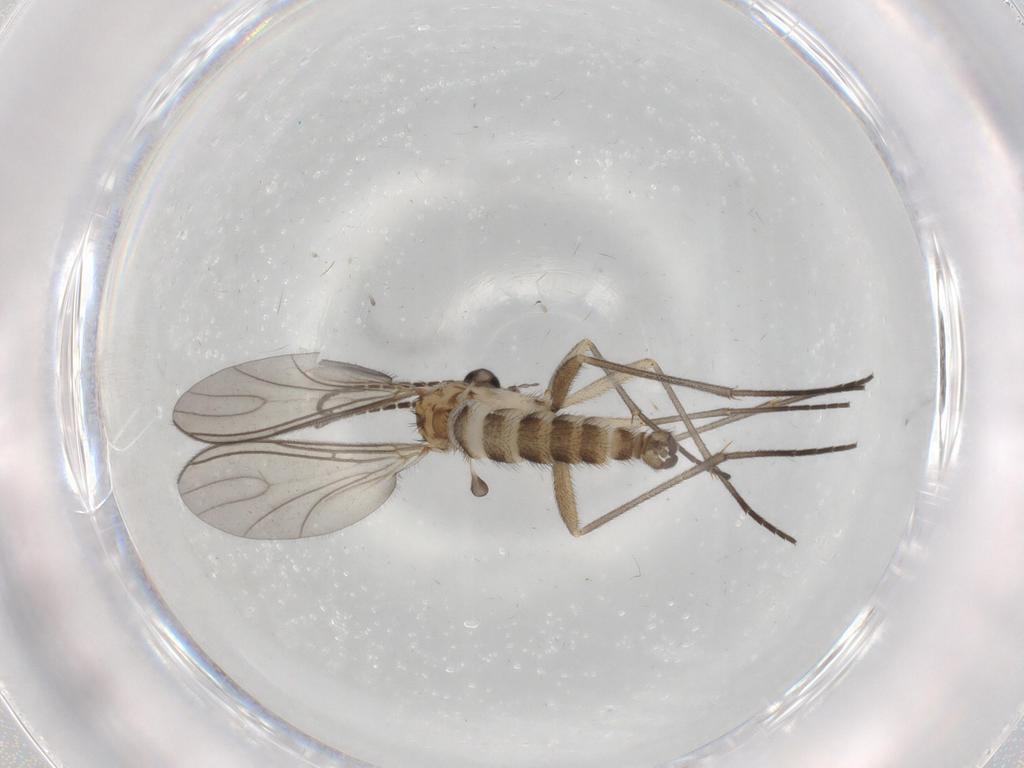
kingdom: Animalia
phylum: Arthropoda
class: Insecta
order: Diptera
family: Sciaridae
